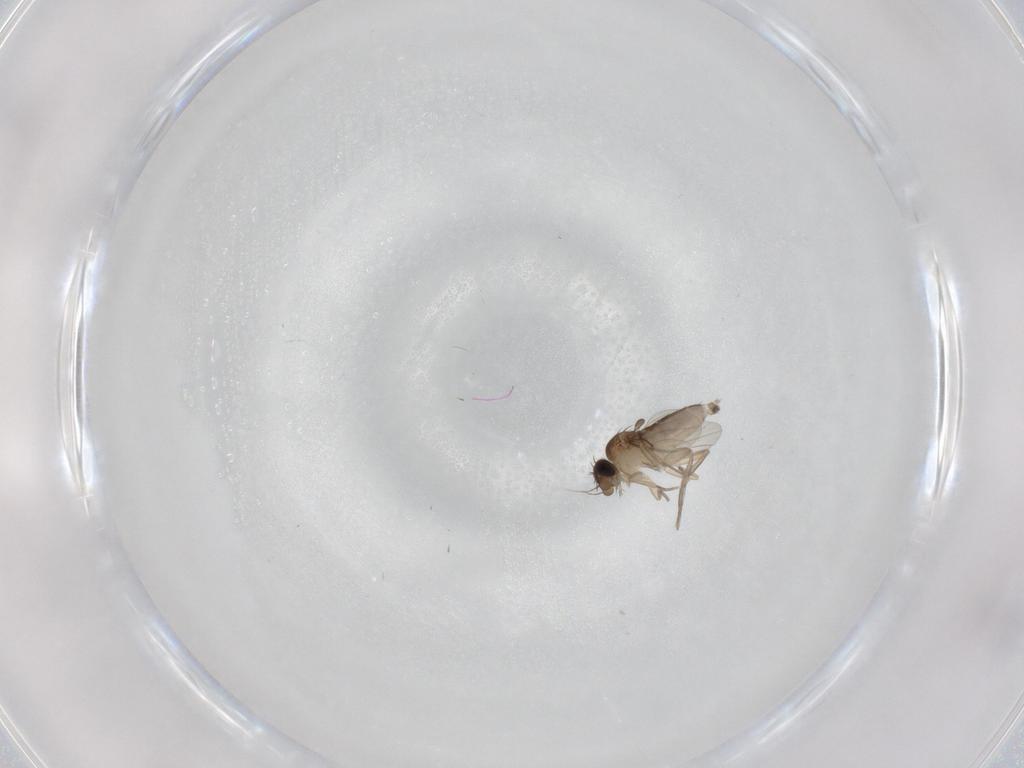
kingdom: Animalia
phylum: Arthropoda
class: Insecta
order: Diptera
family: Phoridae
